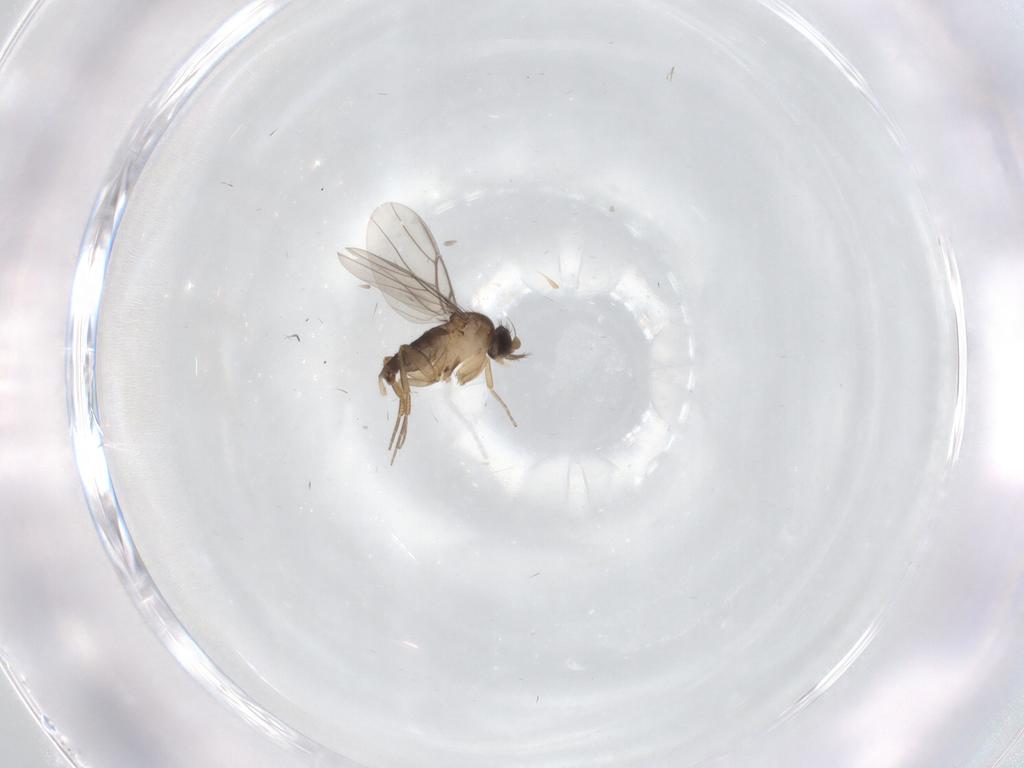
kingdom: Animalia
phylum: Arthropoda
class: Insecta
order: Diptera
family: Phoridae
